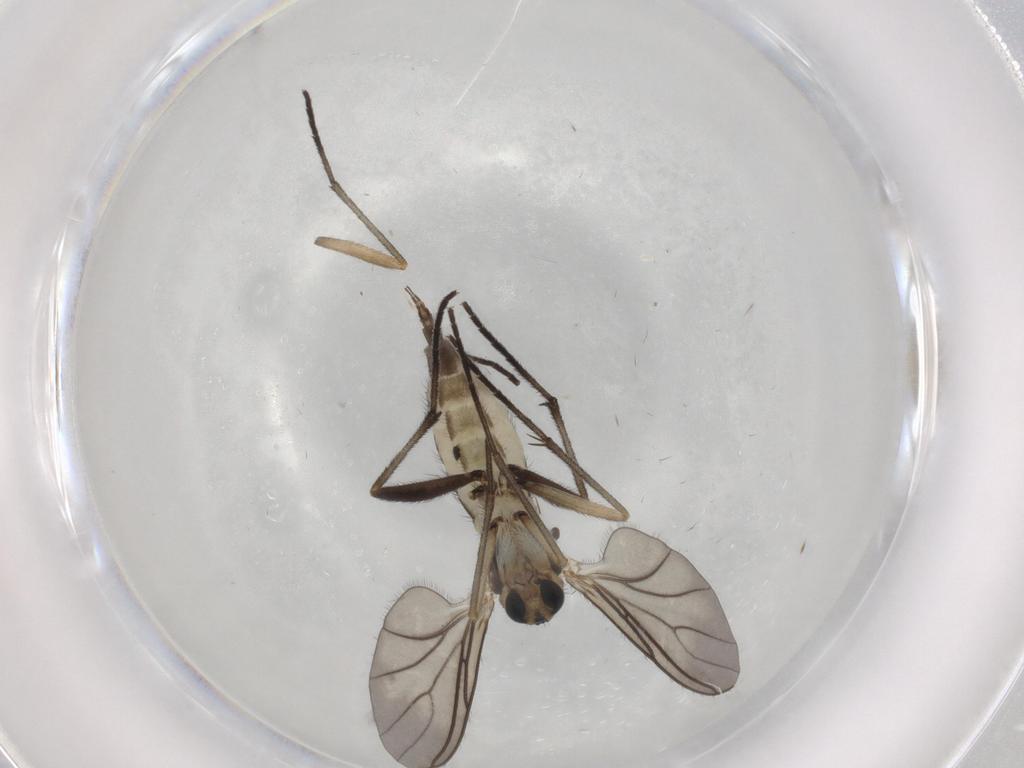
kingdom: Animalia
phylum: Arthropoda
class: Insecta
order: Diptera
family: Sciaridae
